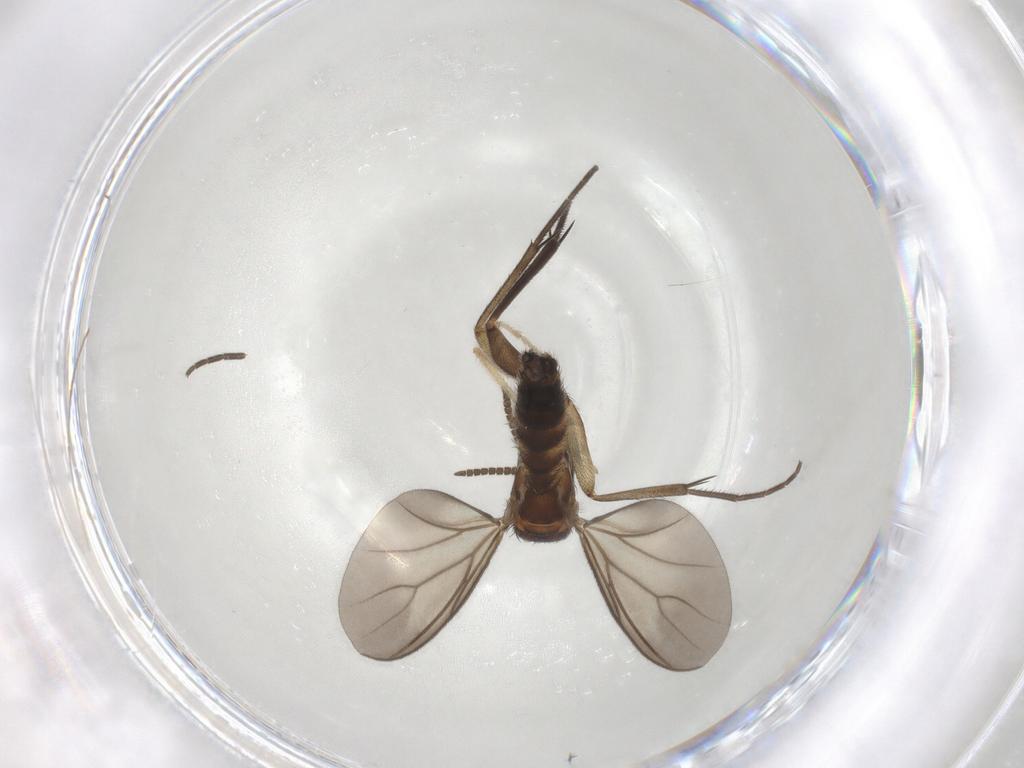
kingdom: Animalia
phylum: Arthropoda
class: Insecta
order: Diptera
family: Mycetophilidae
